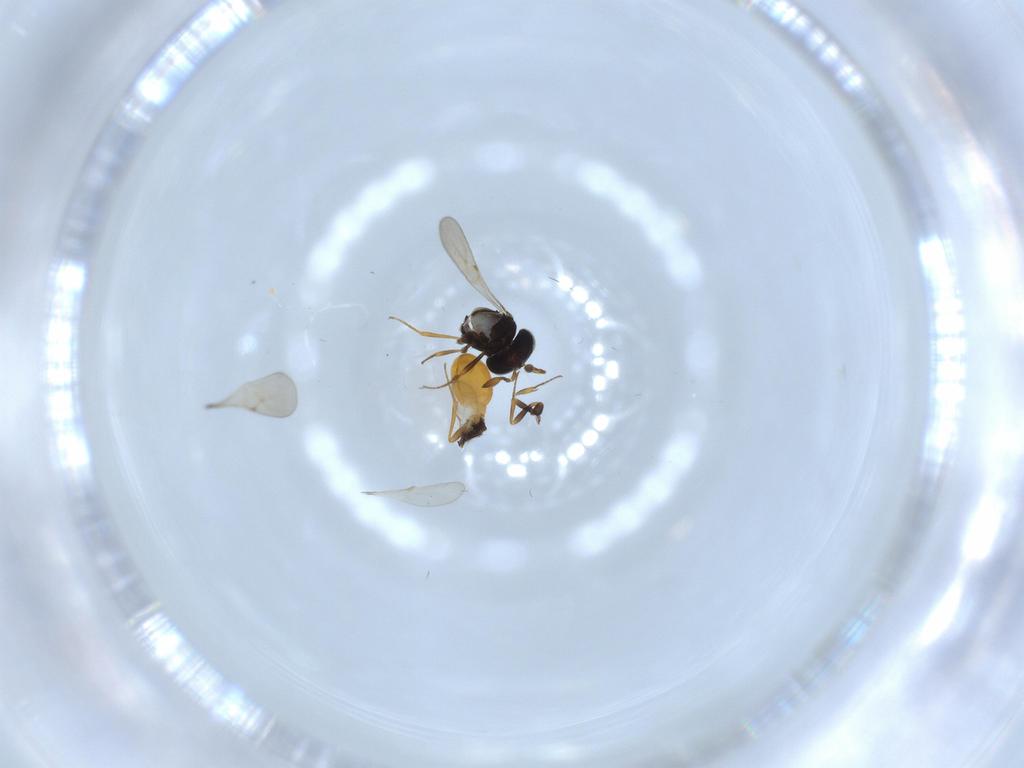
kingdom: Animalia
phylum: Arthropoda
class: Insecta
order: Hymenoptera
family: Scelionidae
